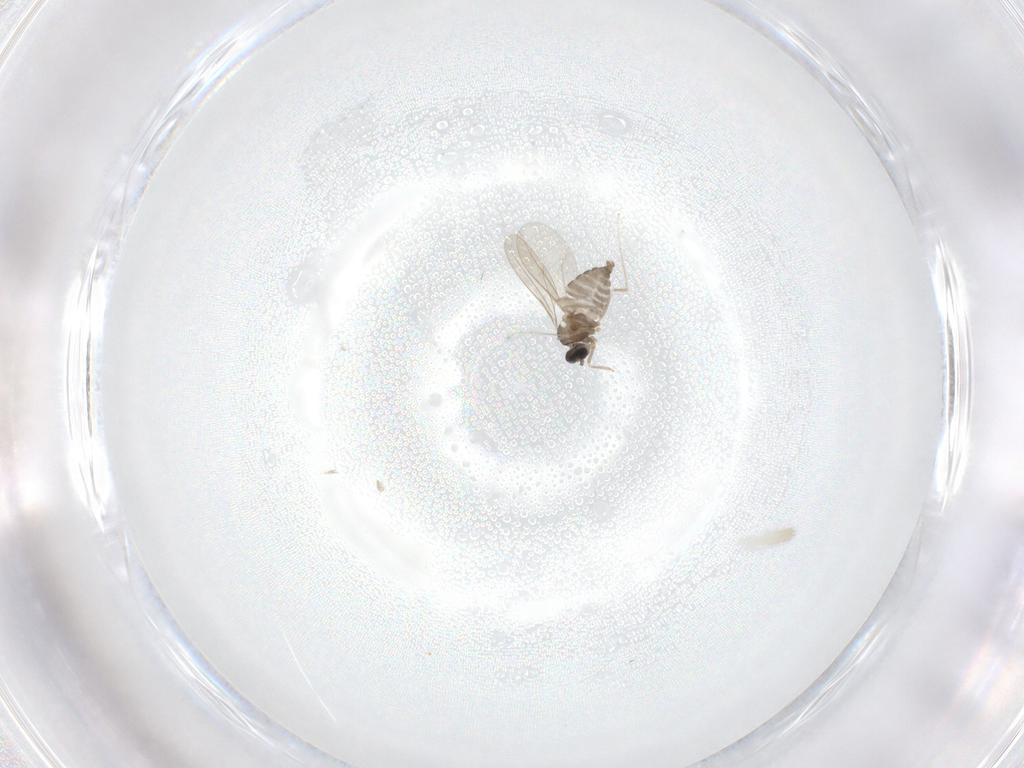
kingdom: Animalia
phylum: Arthropoda
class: Insecta
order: Diptera
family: Cecidomyiidae
